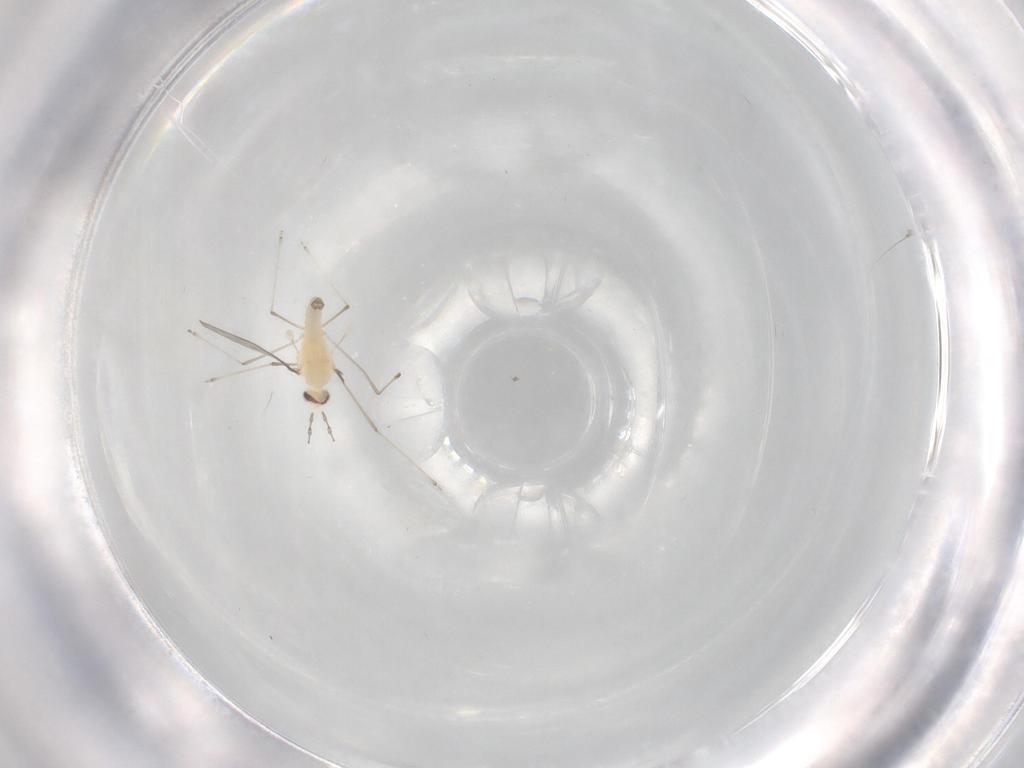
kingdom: Animalia
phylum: Arthropoda
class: Insecta
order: Diptera
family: Cecidomyiidae
